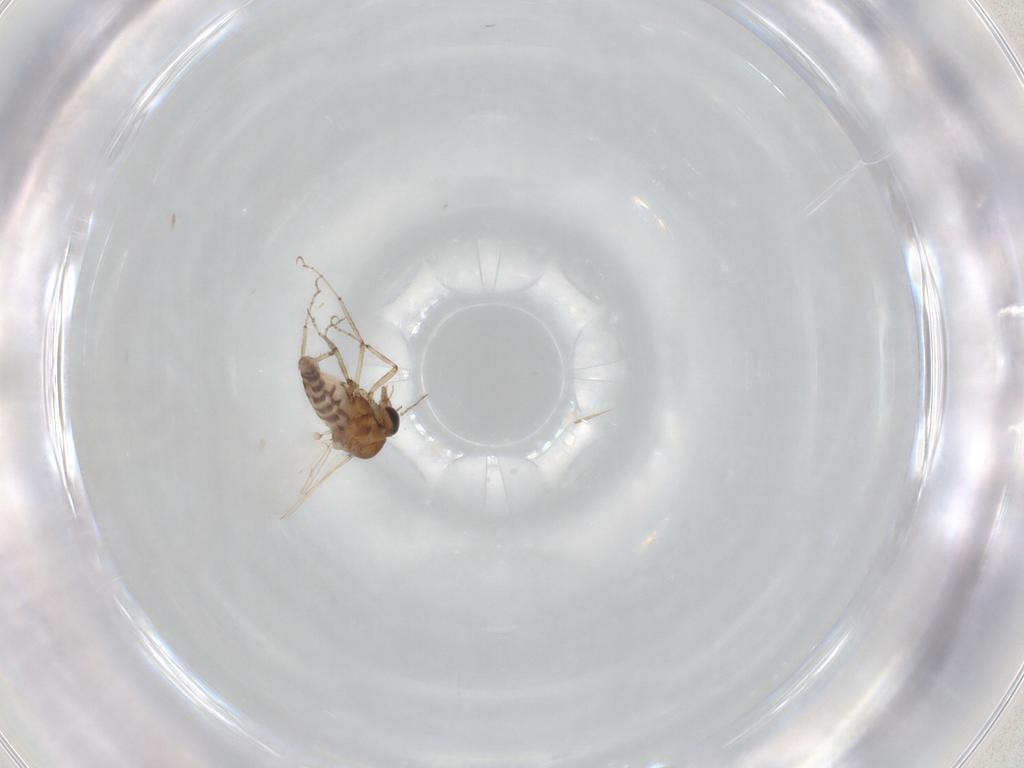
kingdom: Animalia
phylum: Arthropoda
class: Insecta
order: Diptera
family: Ceratopogonidae
